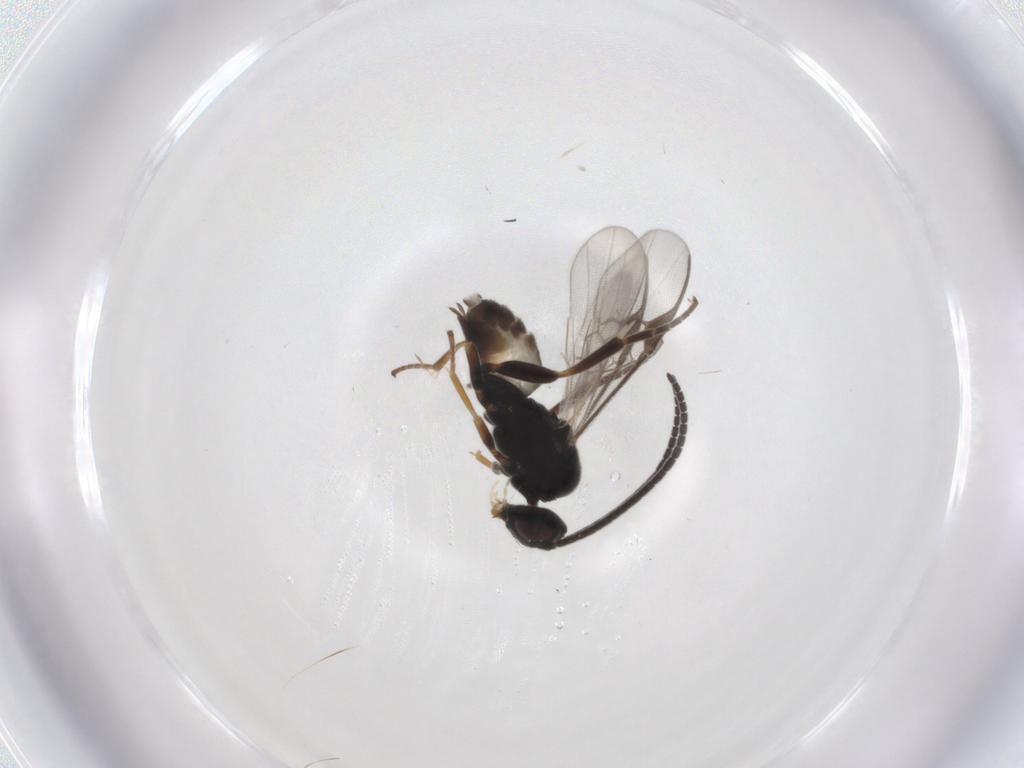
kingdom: Animalia
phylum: Arthropoda
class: Insecta
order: Hymenoptera
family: Braconidae
